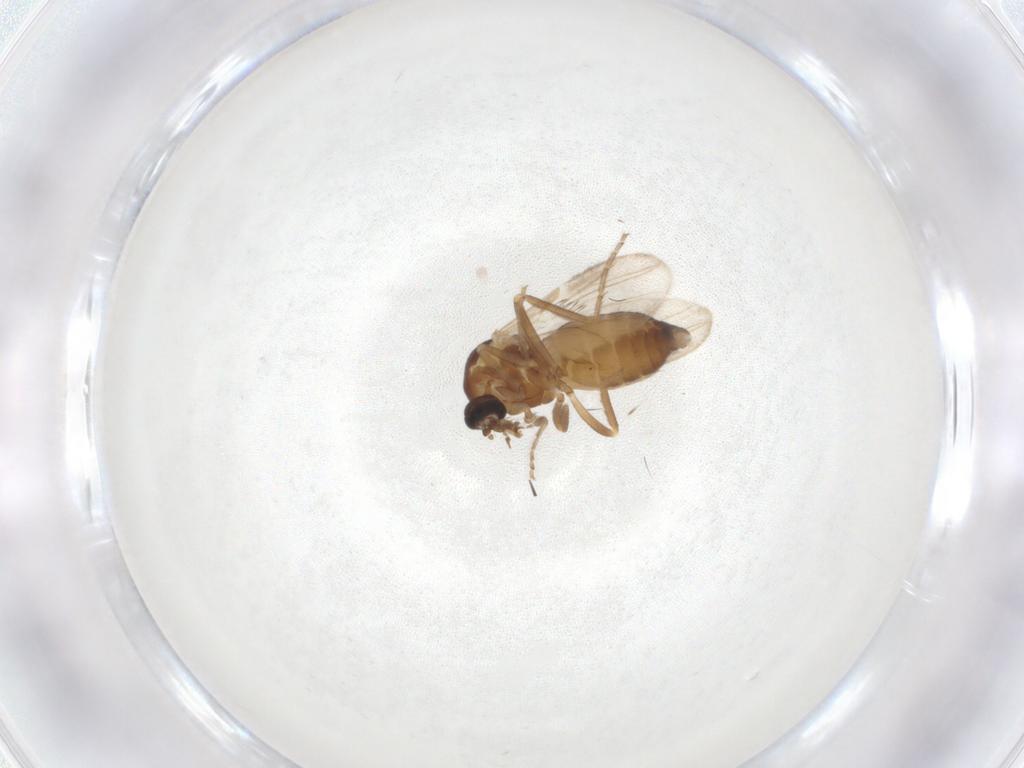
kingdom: Animalia
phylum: Arthropoda
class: Insecta
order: Diptera
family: Ceratopogonidae
